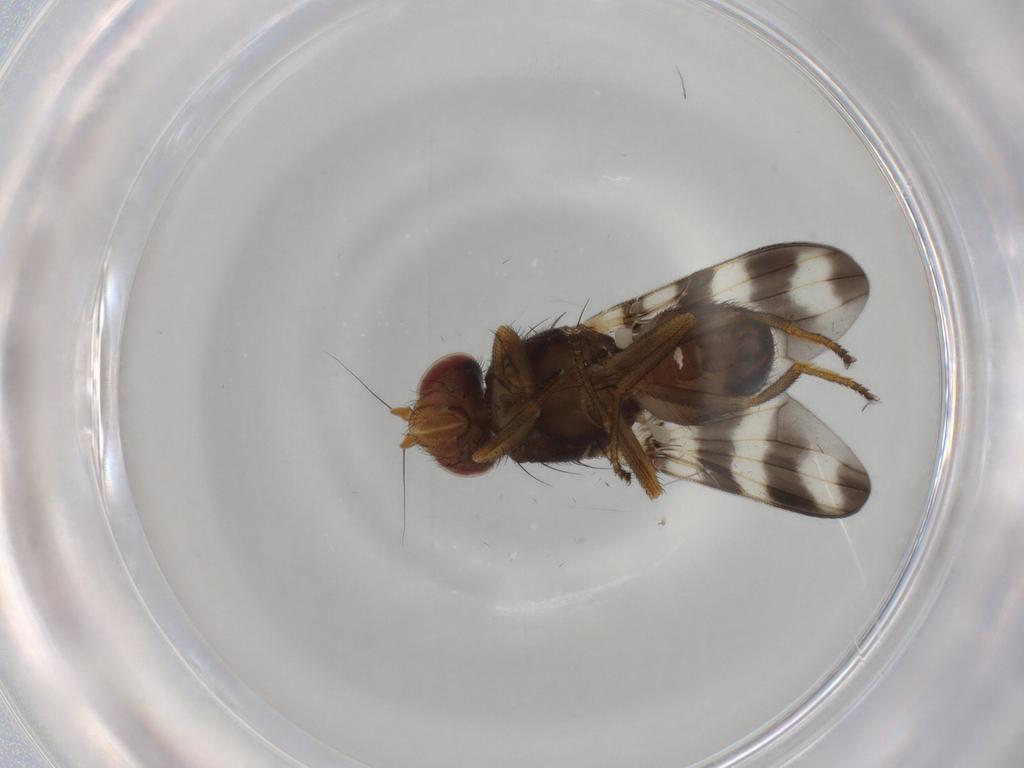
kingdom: Animalia
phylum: Arthropoda
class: Insecta
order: Diptera
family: Ulidiidae
